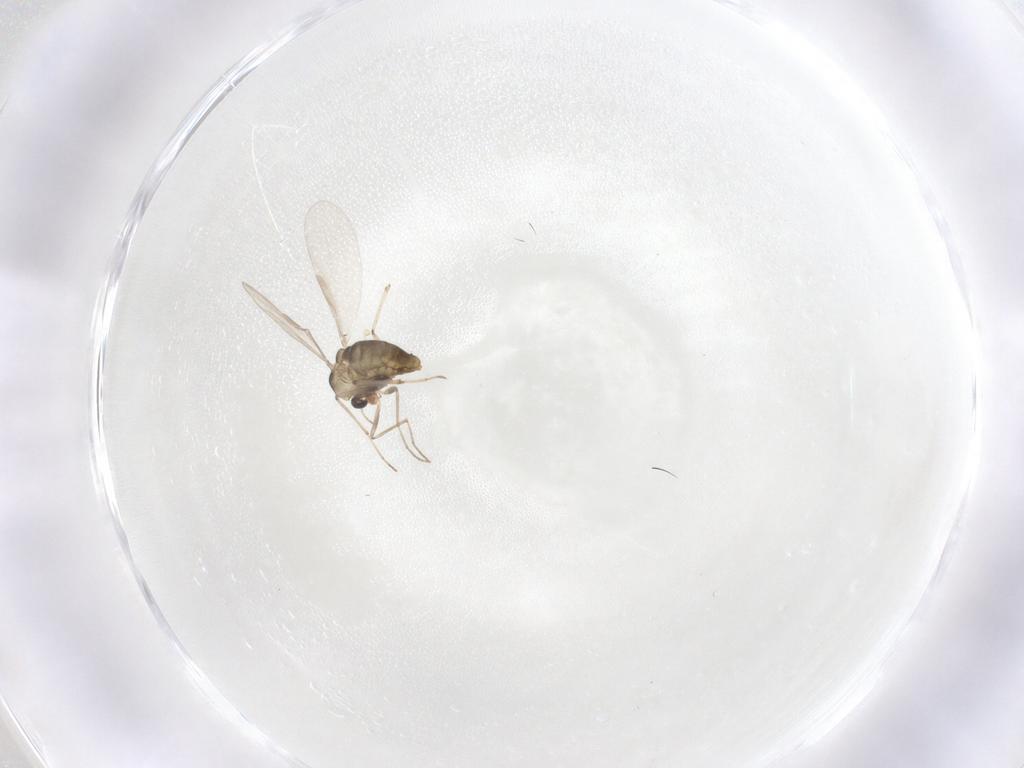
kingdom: Animalia
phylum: Arthropoda
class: Insecta
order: Diptera
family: Chironomidae
